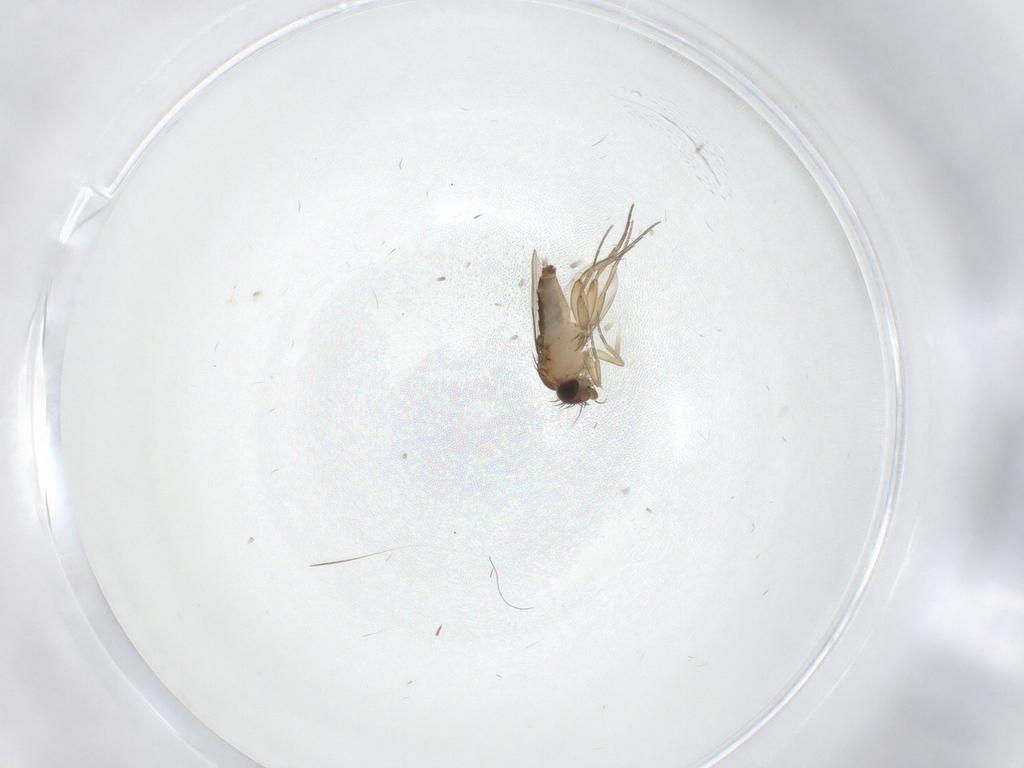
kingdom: Animalia
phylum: Arthropoda
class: Insecta
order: Diptera
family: Phoridae
